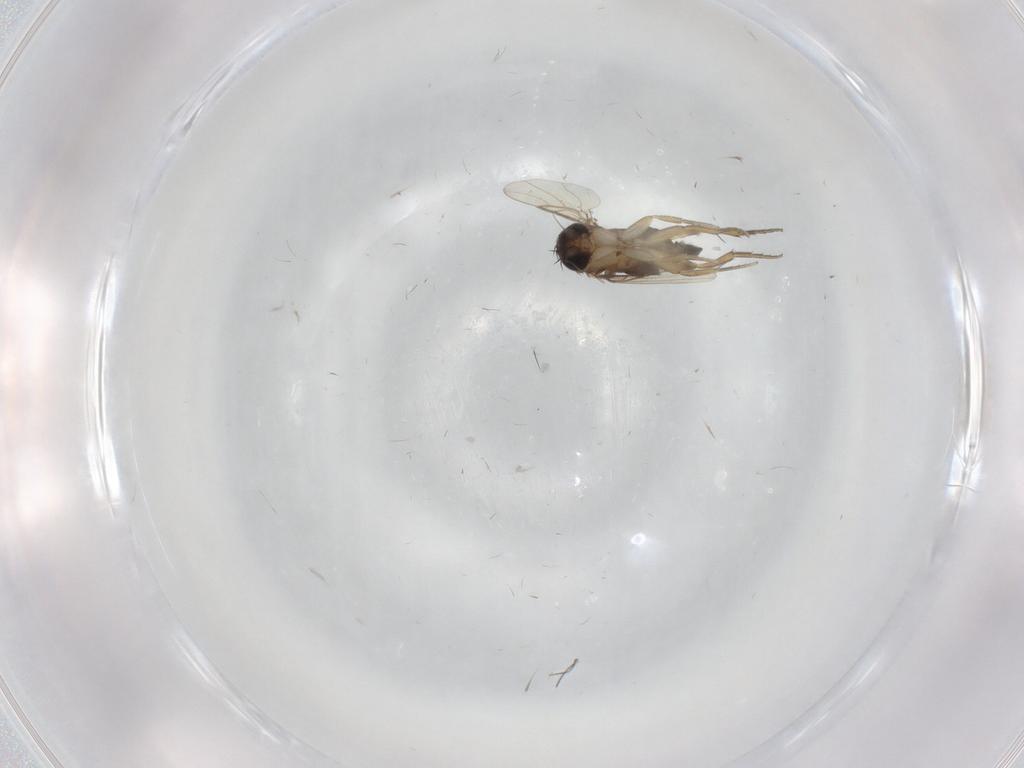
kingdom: Animalia
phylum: Arthropoda
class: Insecta
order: Diptera
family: Phoridae
